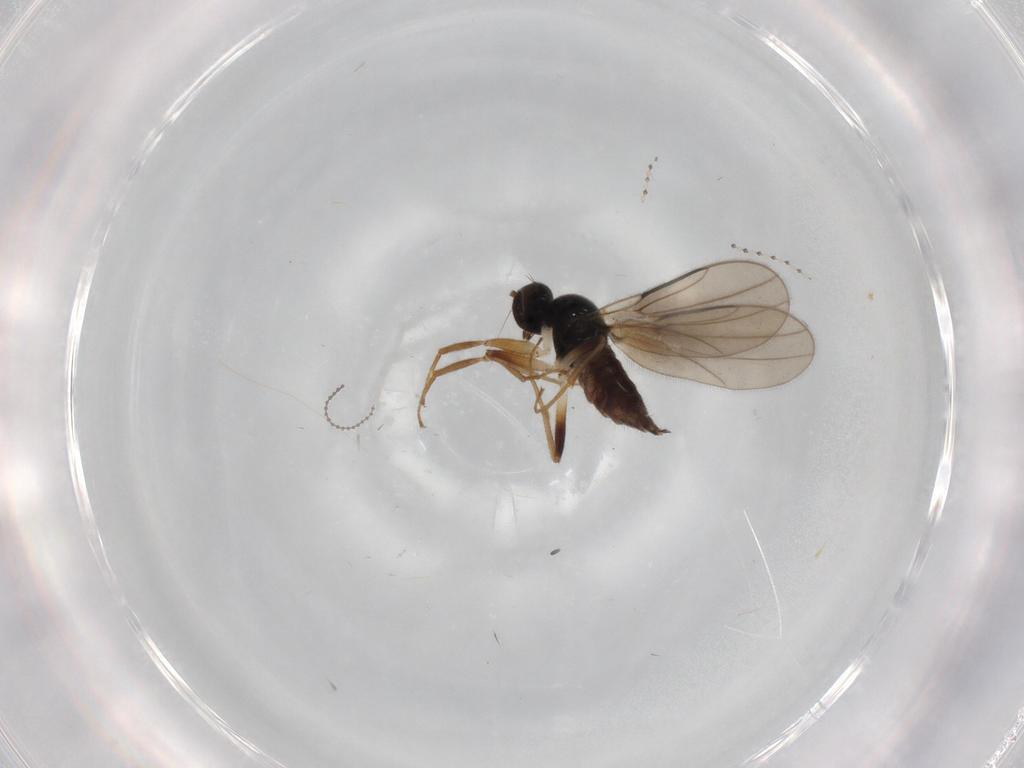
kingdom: Animalia
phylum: Arthropoda
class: Insecta
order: Diptera
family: Hybotidae
